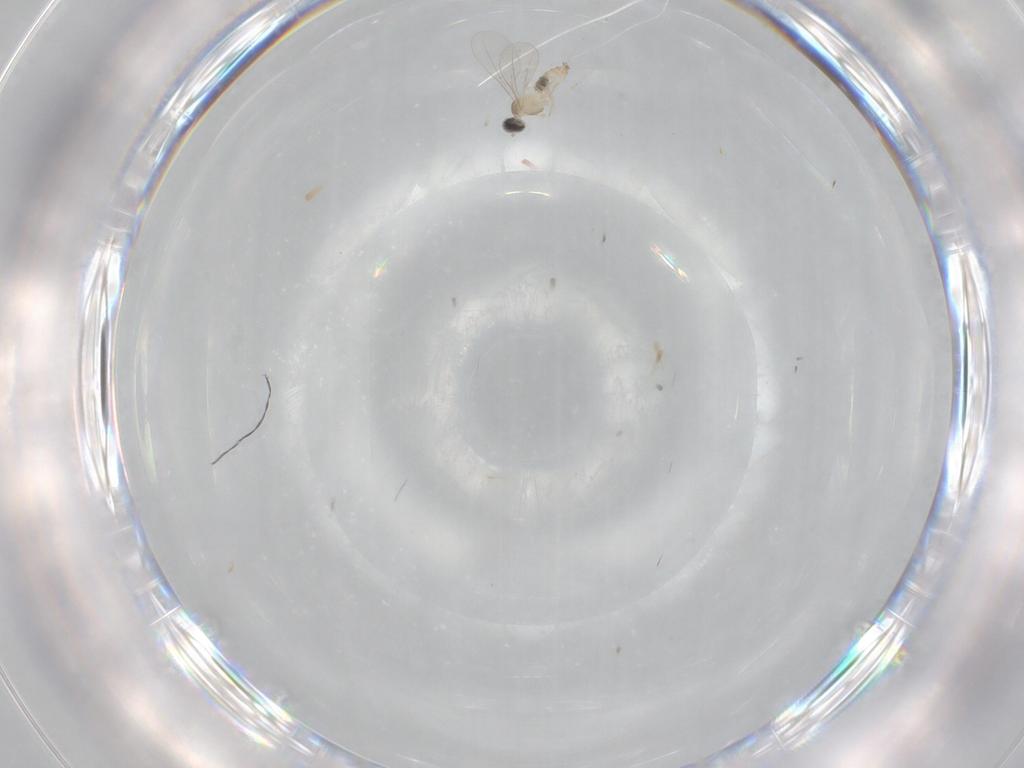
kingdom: Animalia
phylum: Arthropoda
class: Insecta
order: Diptera
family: Cecidomyiidae
